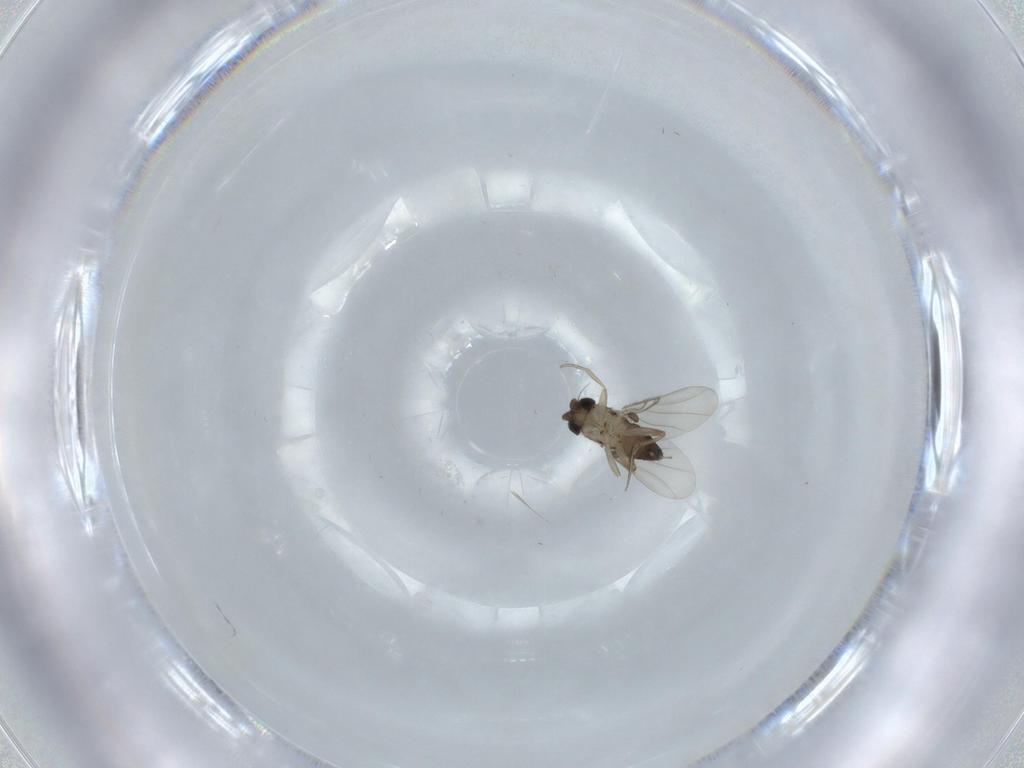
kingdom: Animalia
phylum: Arthropoda
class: Insecta
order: Diptera
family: Phoridae
